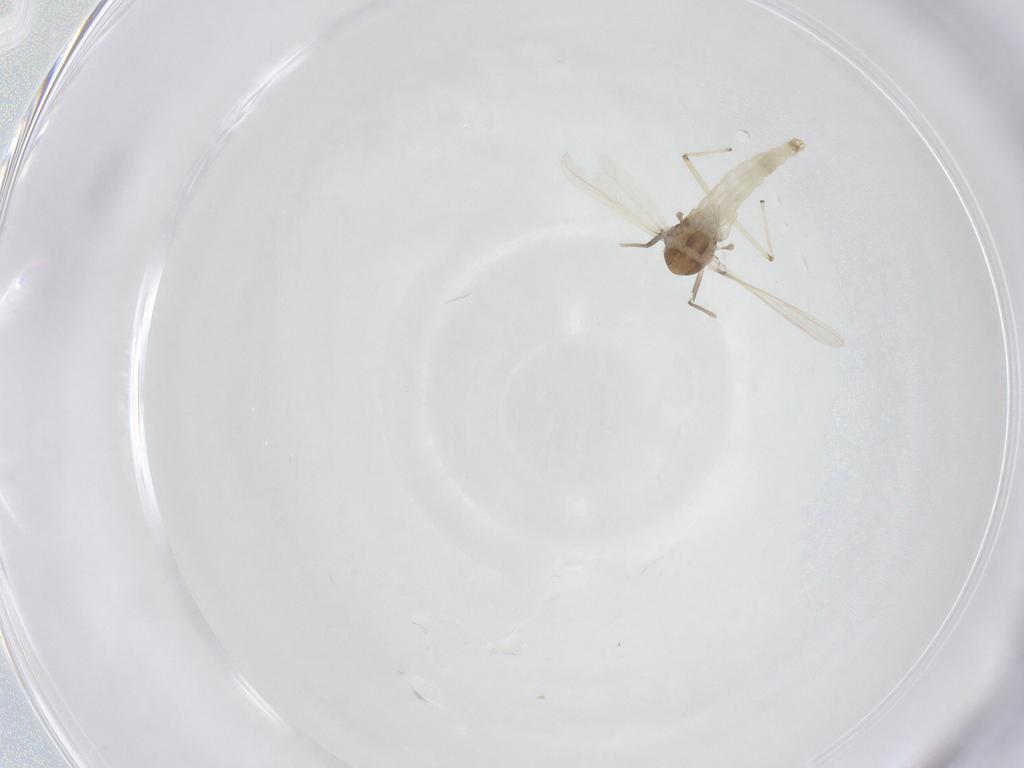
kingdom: Animalia
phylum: Arthropoda
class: Insecta
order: Diptera
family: Chironomidae
